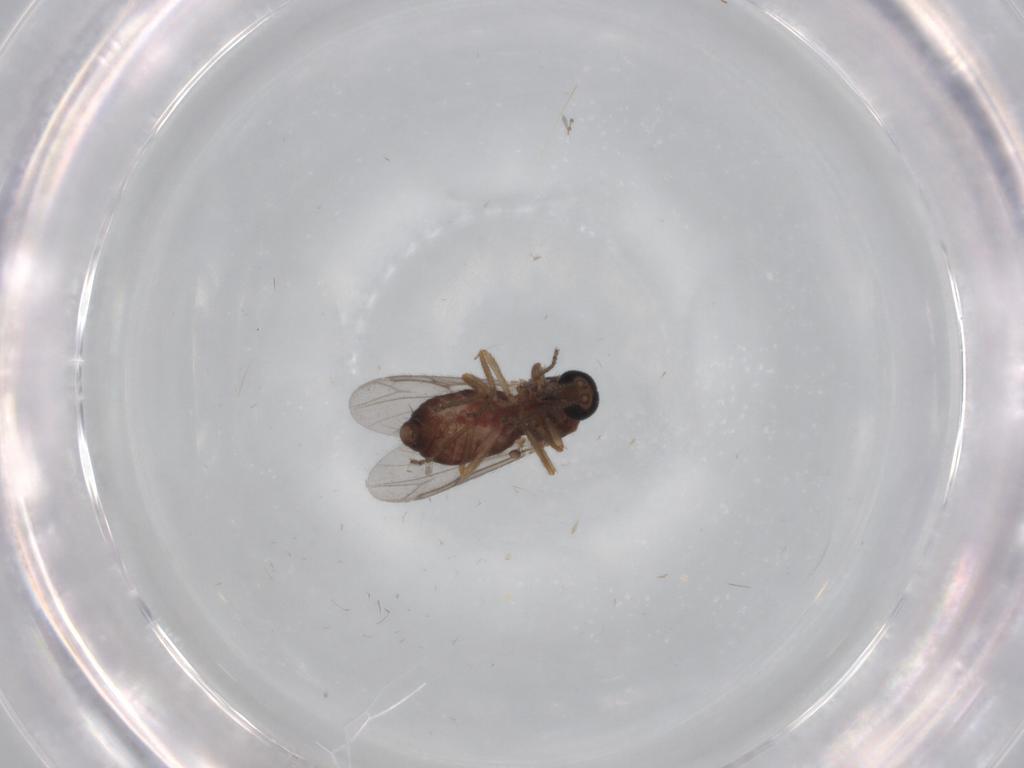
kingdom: Animalia
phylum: Arthropoda
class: Insecta
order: Diptera
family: Ceratopogonidae
